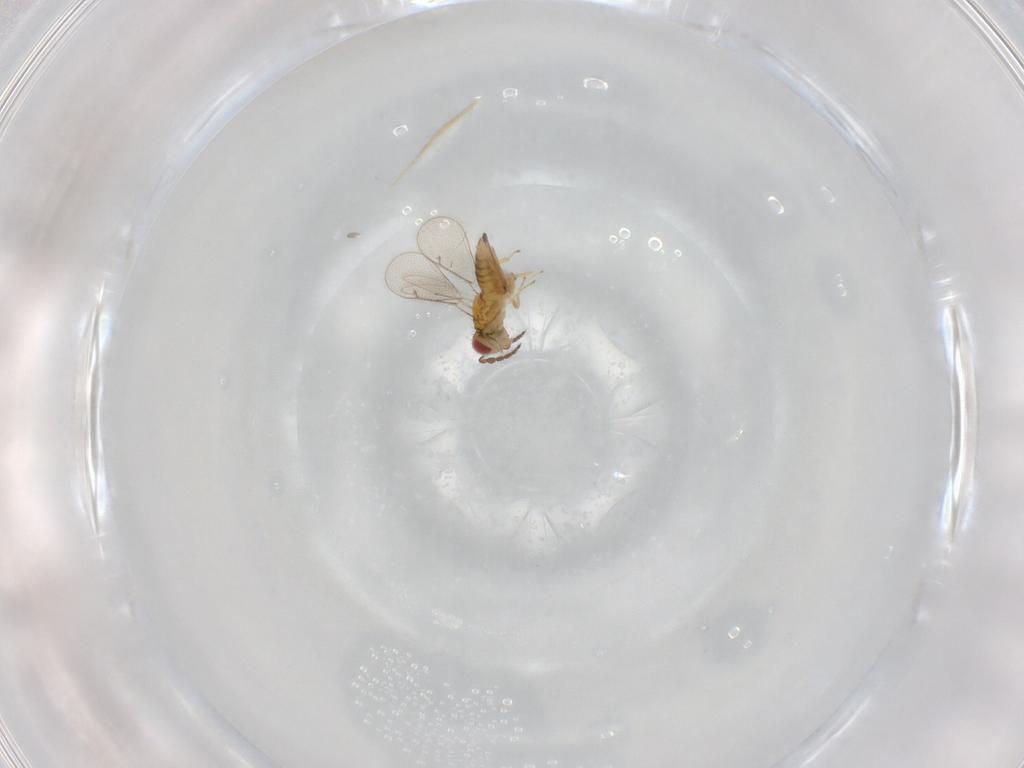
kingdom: Animalia
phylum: Arthropoda
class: Insecta
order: Hymenoptera
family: Eulophidae
